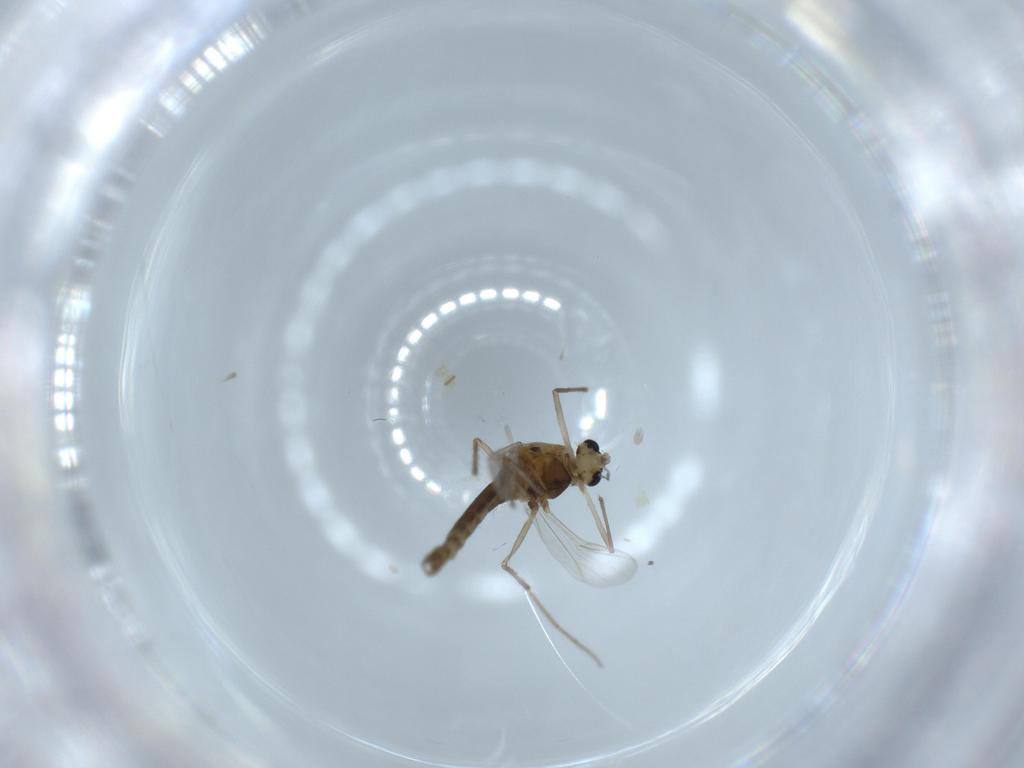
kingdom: Animalia
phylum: Arthropoda
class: Insecta
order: Diptera
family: Chironomidae
